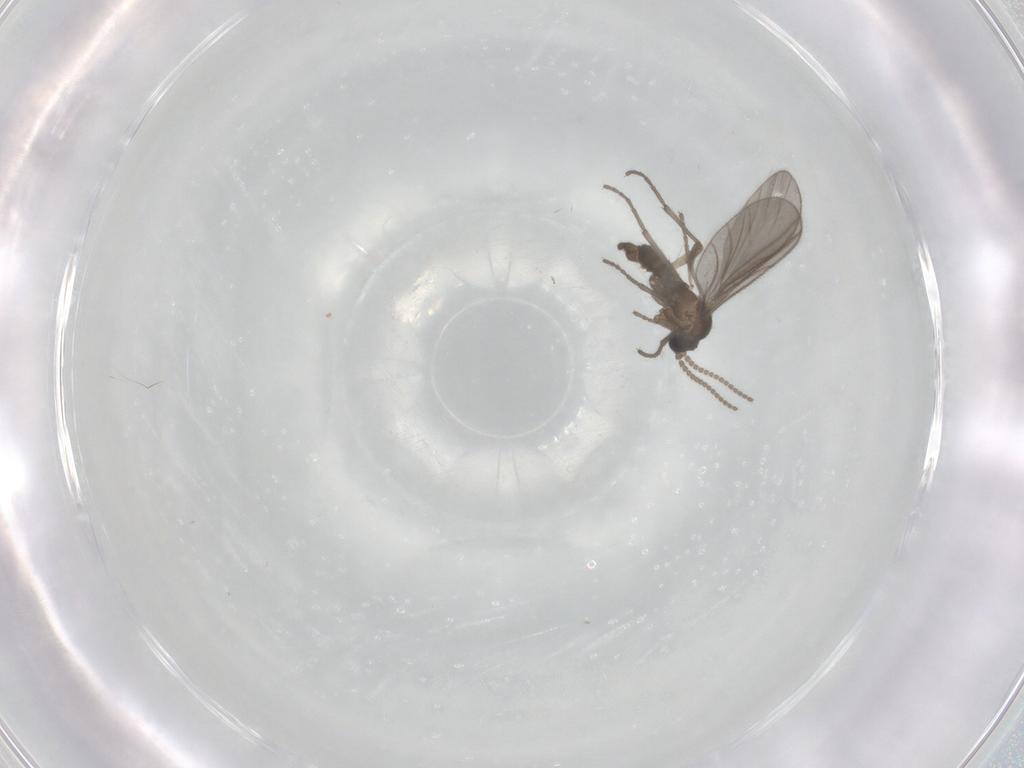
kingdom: Animalia
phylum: Arthropoda
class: Insecta
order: Diptera
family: Sciaridae
